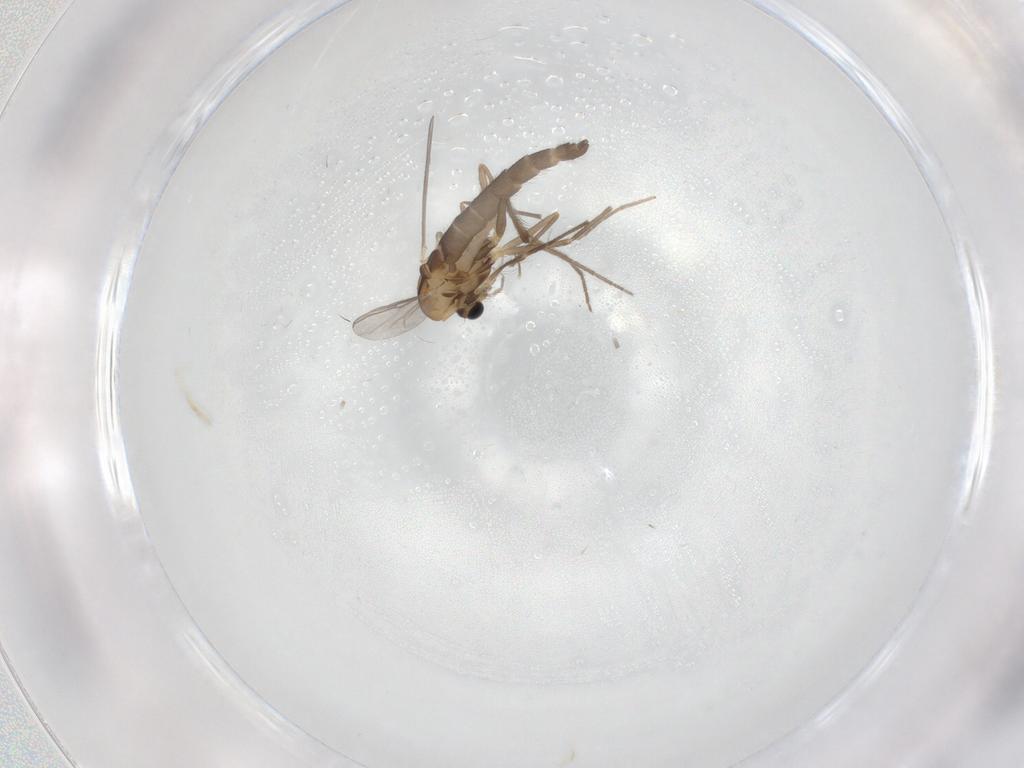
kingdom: Animalia
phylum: Arthropoda
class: Insecta
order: Diptera
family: Chironomidae
